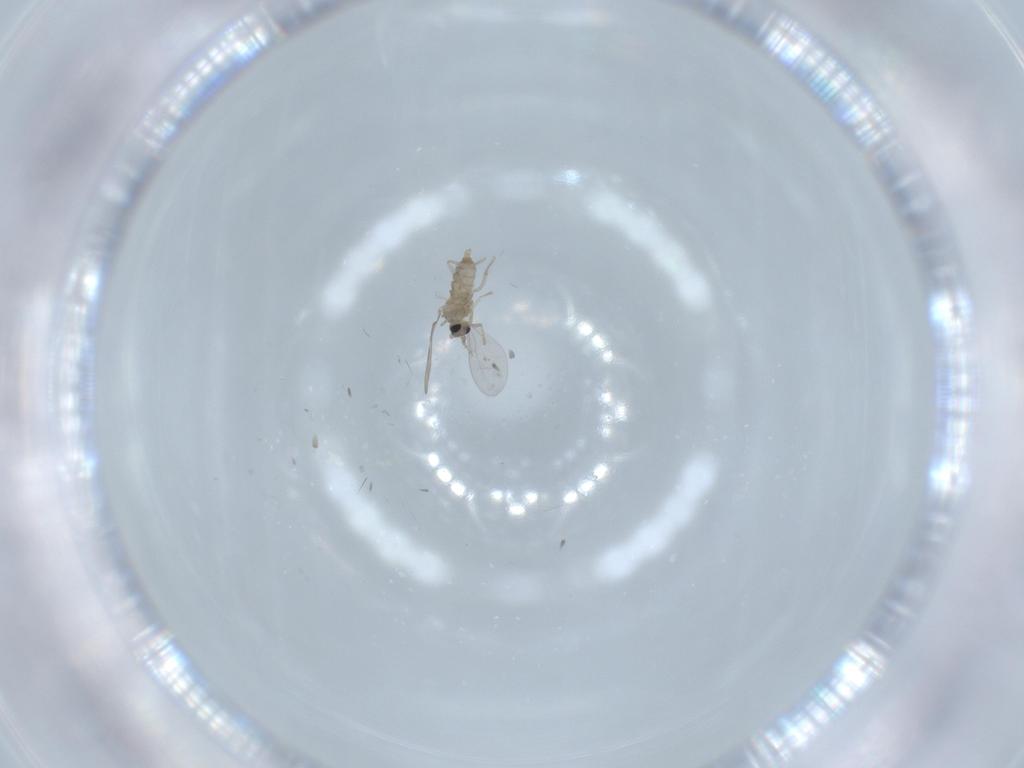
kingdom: Animalia
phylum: Arthropoda
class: Insecta
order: Diptera
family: Cecidomyiidae
